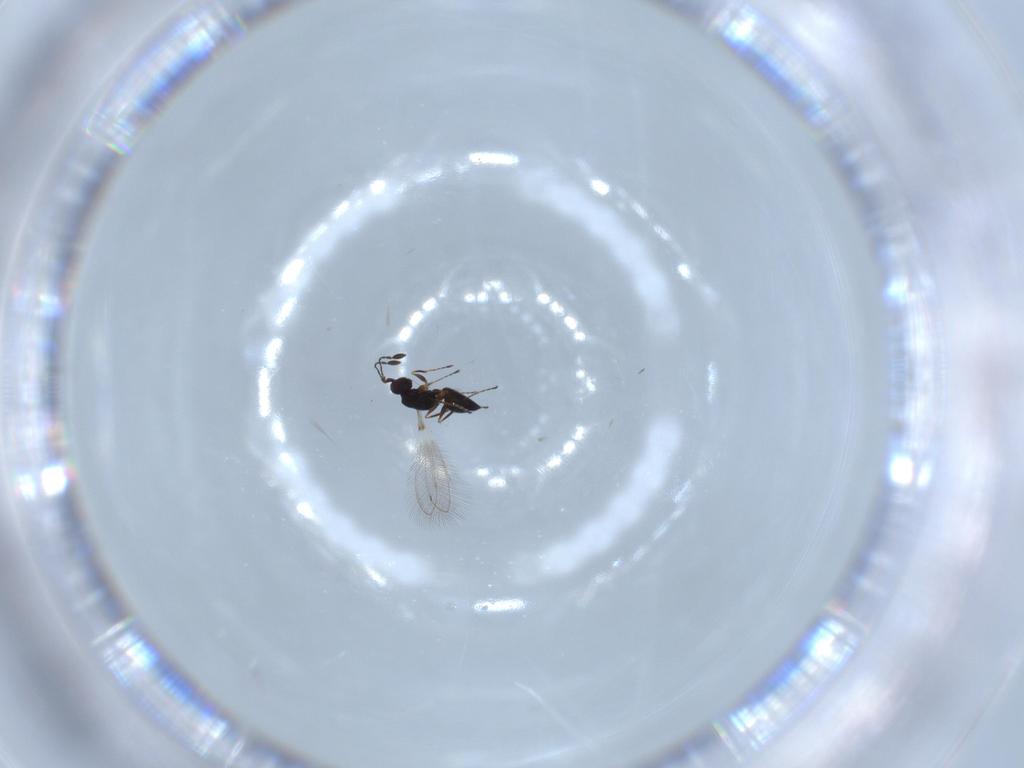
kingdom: Animalia
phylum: Arthropoda
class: Insecta
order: Hymenoptera
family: Mymaridae
